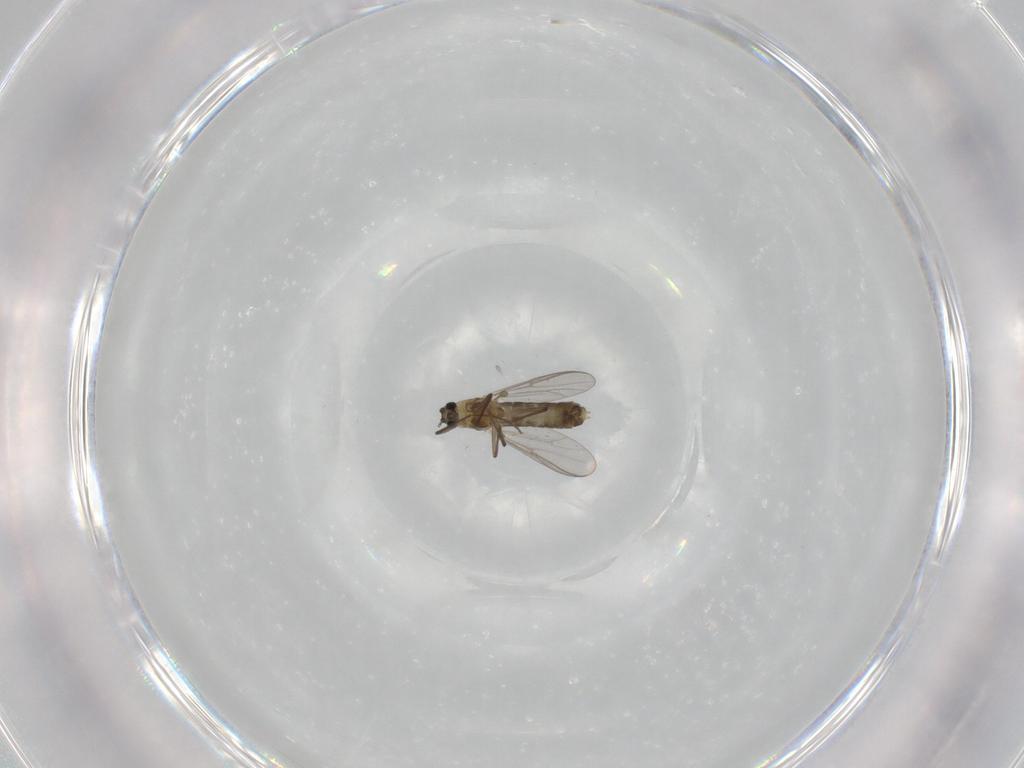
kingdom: Animalia
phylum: Arthropoda
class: Insecta
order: Diptera
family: Chironomidae
